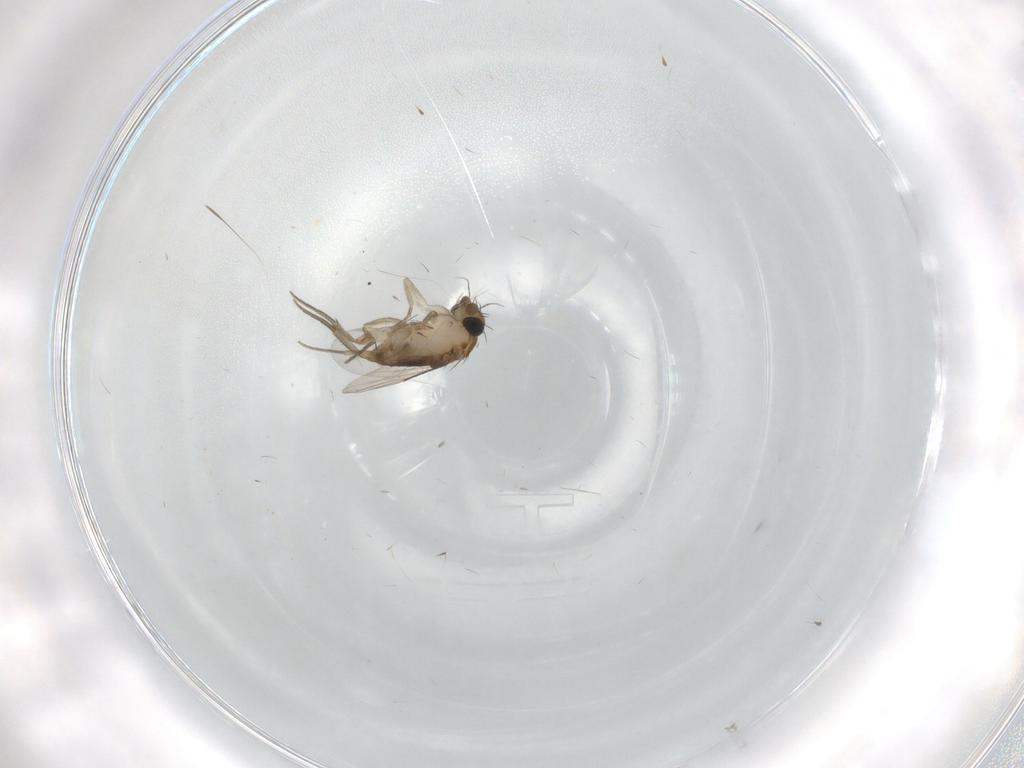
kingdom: Animalia
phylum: Arthropoda
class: Insecta
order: Diptera
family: Phoridae
